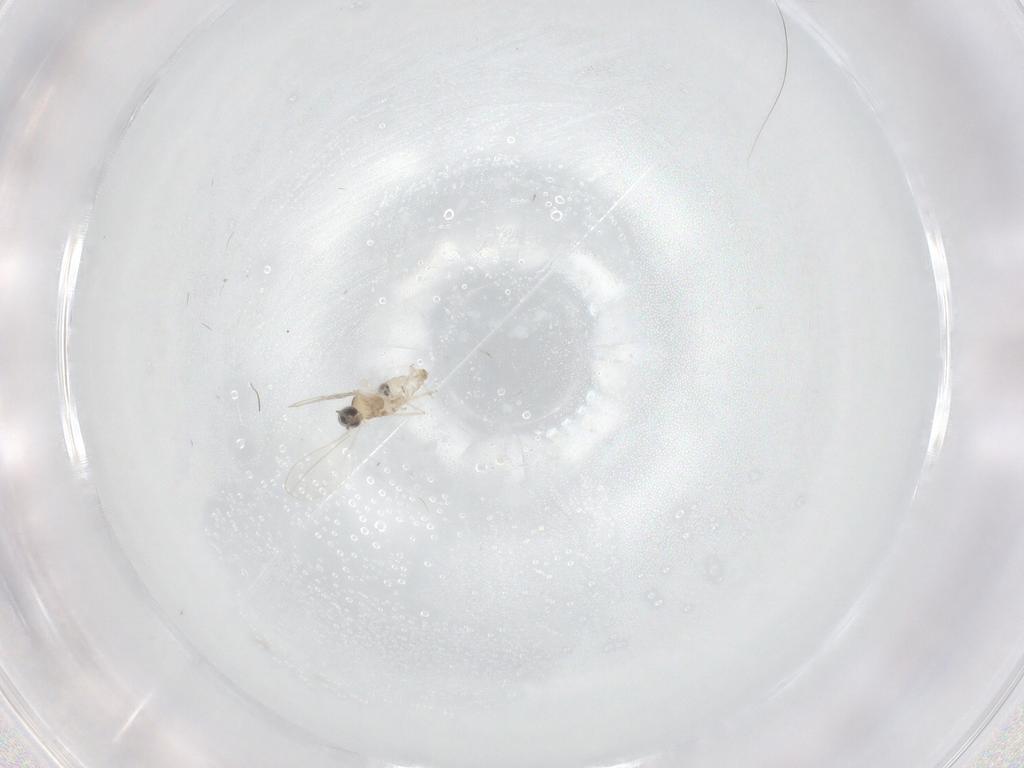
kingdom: Animalia
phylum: Arthropoda
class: Insecta
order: Diptera
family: Cecidomyiidae
